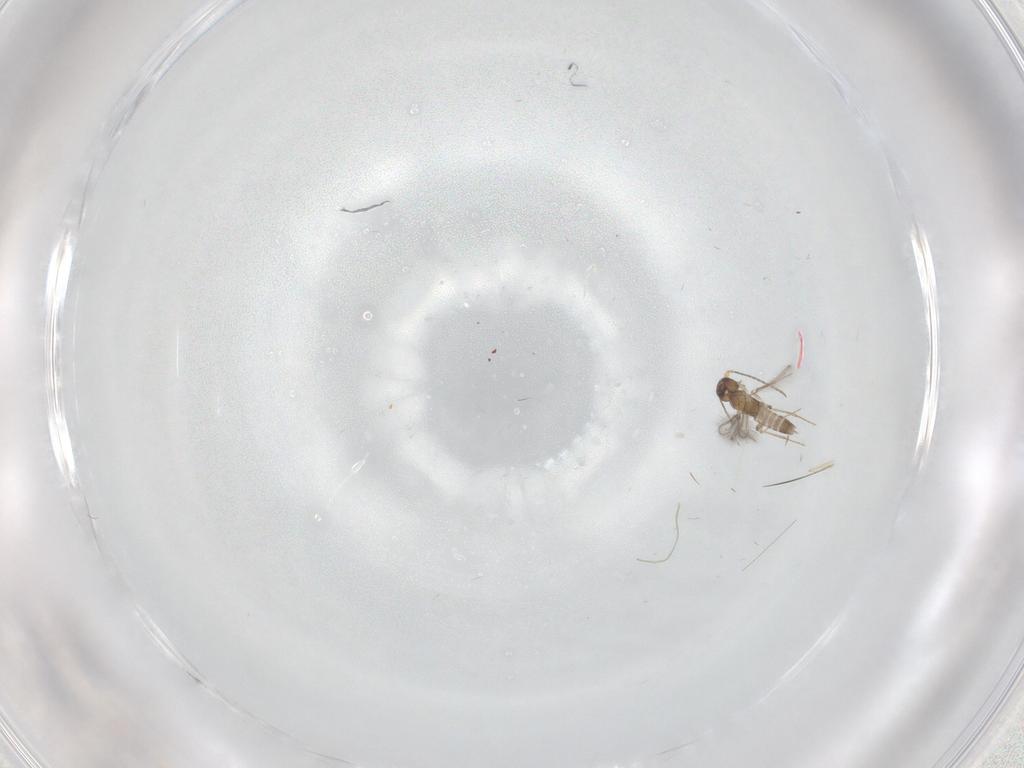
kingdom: Animalia
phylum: Arthropoda
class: Insecta
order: Hymenoptera
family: Mymaridae
